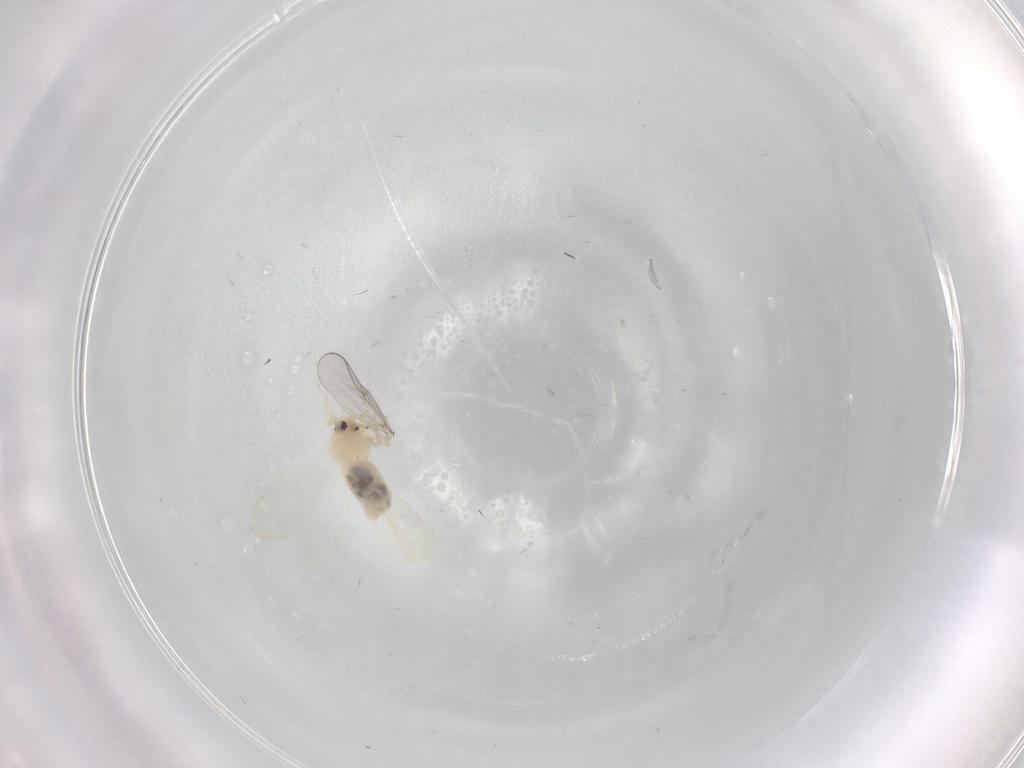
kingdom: Animalia
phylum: Arthropoda
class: Insecta
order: Hemiptera
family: Aleyrodidae
